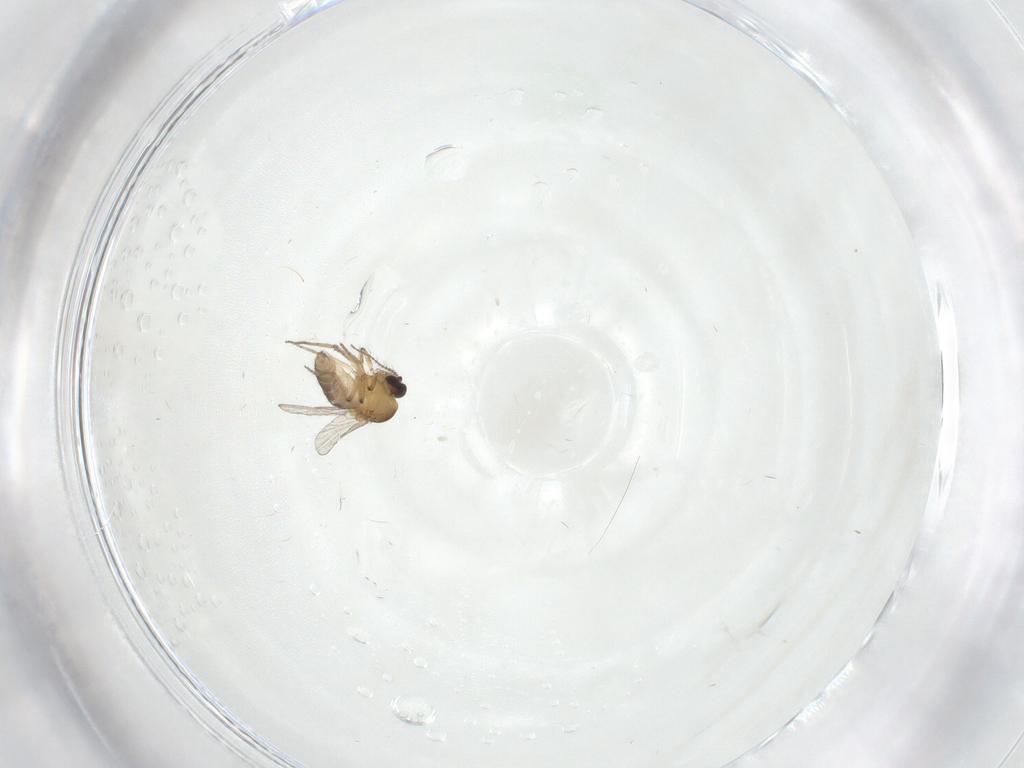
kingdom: Animalia
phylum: Arthropoda
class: Insecta
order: Diptera
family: Ceratopogonidae
